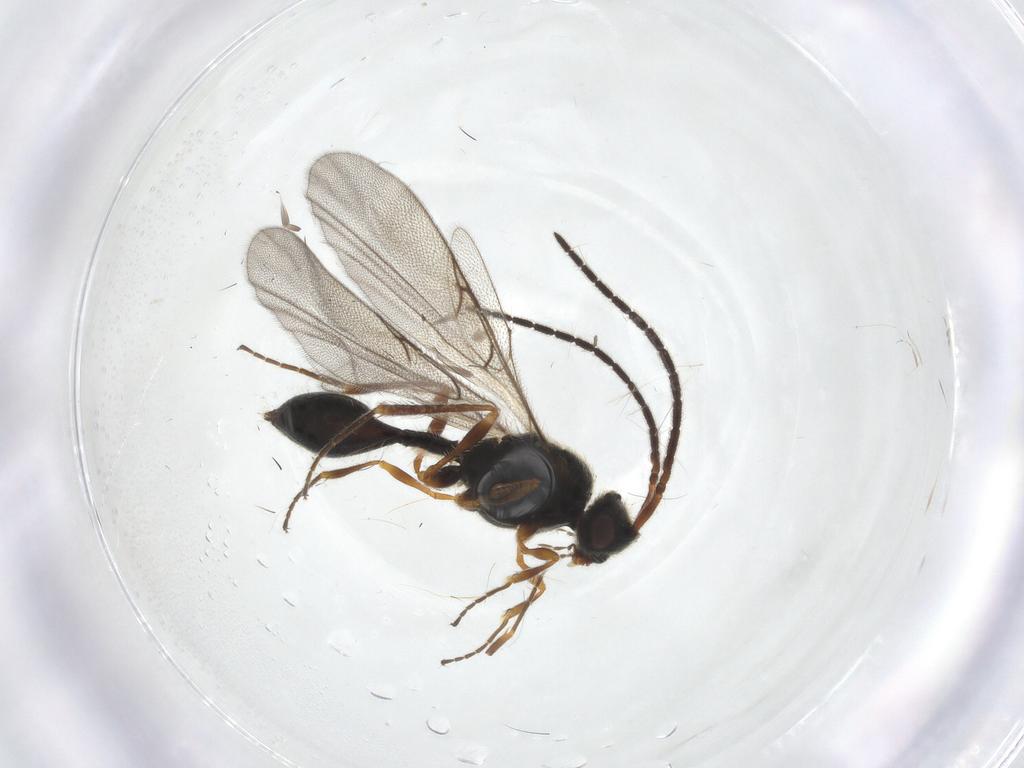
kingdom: Animalia
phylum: Arthropoda
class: Insecta
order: Hymenoptera
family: Diapriidae
